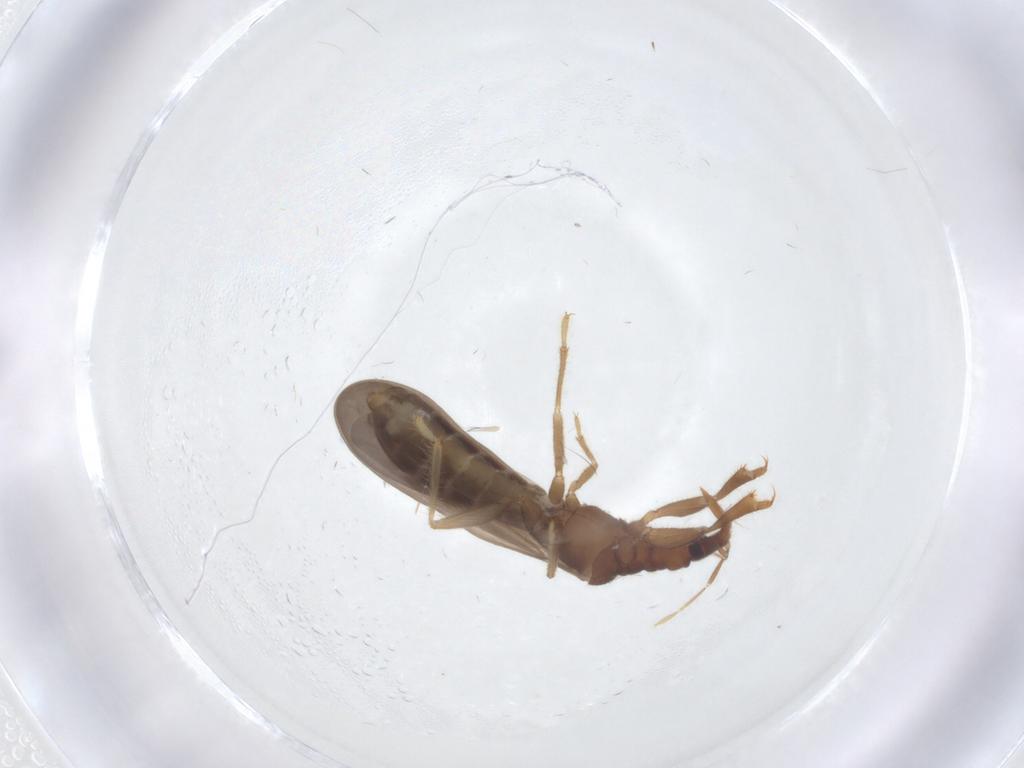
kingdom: Animalia
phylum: Arthropoda
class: Insecta
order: Hemiptera
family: Enicocephalidae
